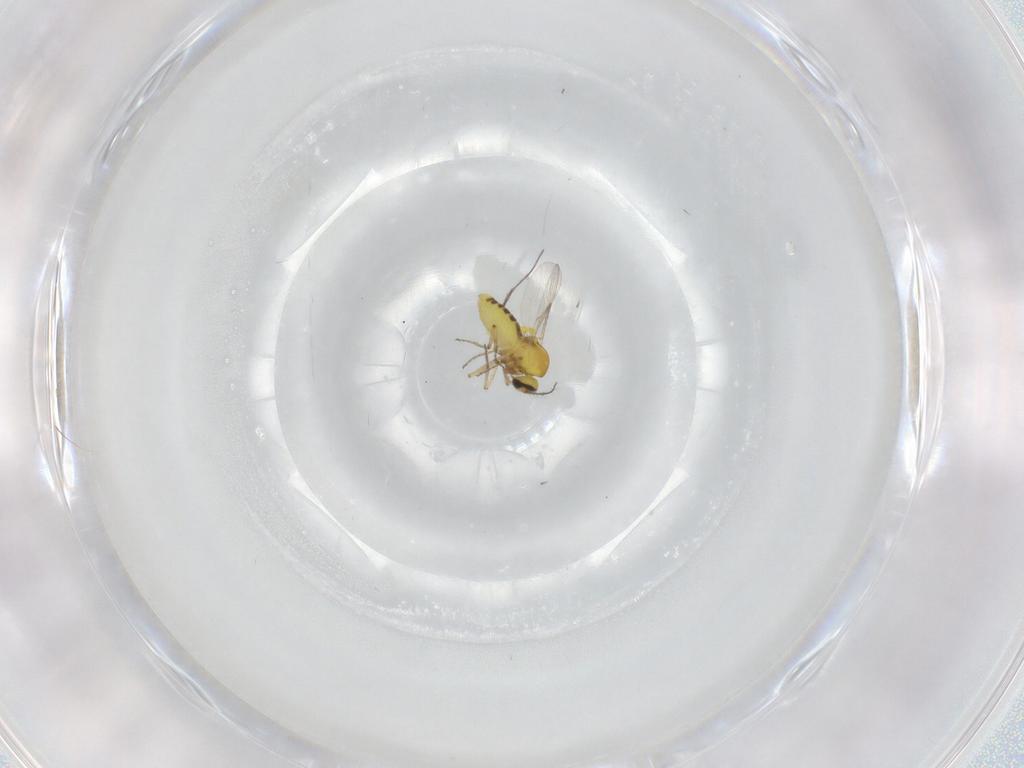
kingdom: Animalia
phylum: Arthropoda
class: Insecta
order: Diptera
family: Ceratopogonidae
